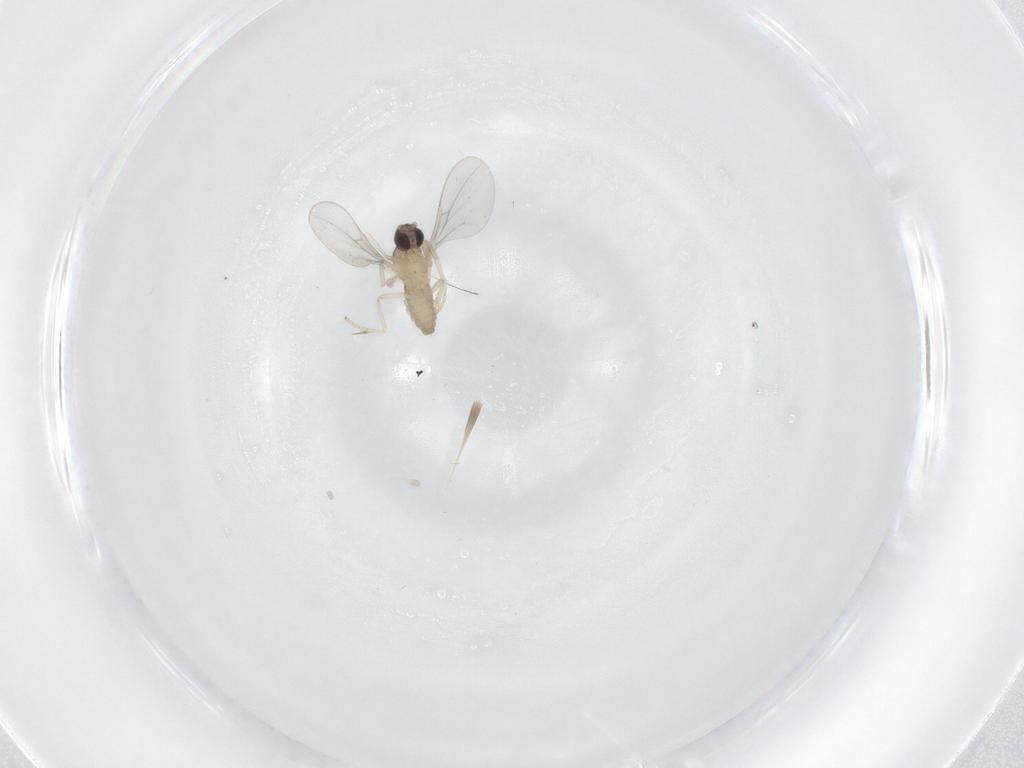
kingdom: Animalia
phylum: Arthropoda
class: Insecta
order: Diptera
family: Cecidomyiidae
